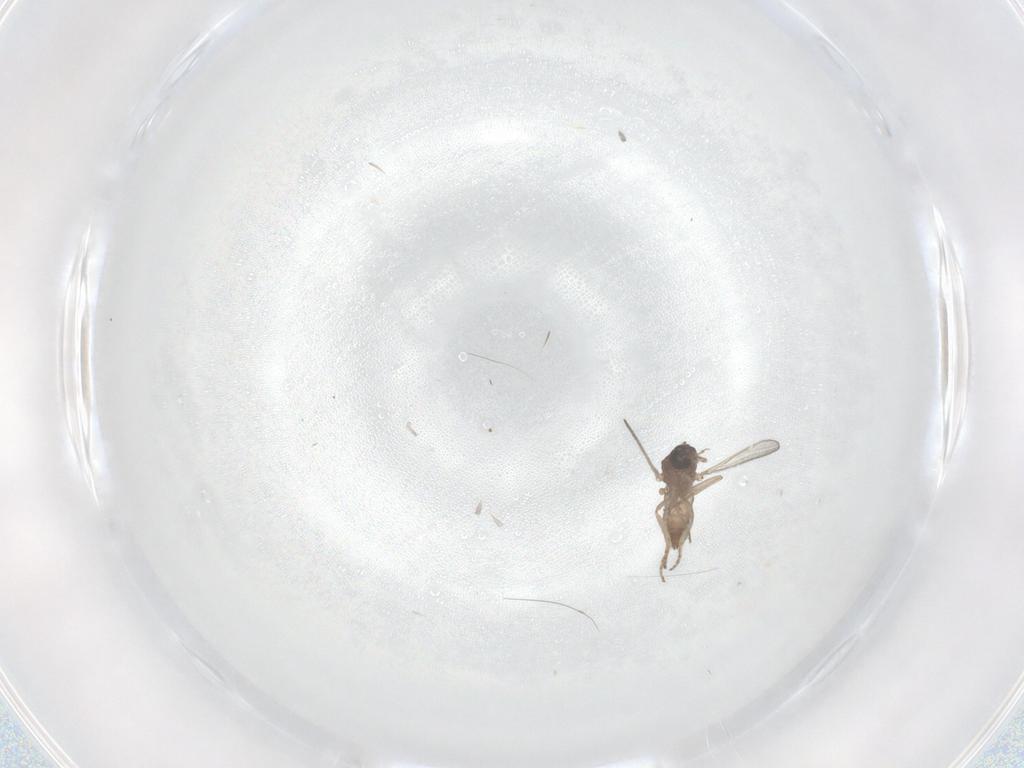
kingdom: Animalia
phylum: Arthropoda
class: Insecta
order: Diptera
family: Ceratopogonidae
